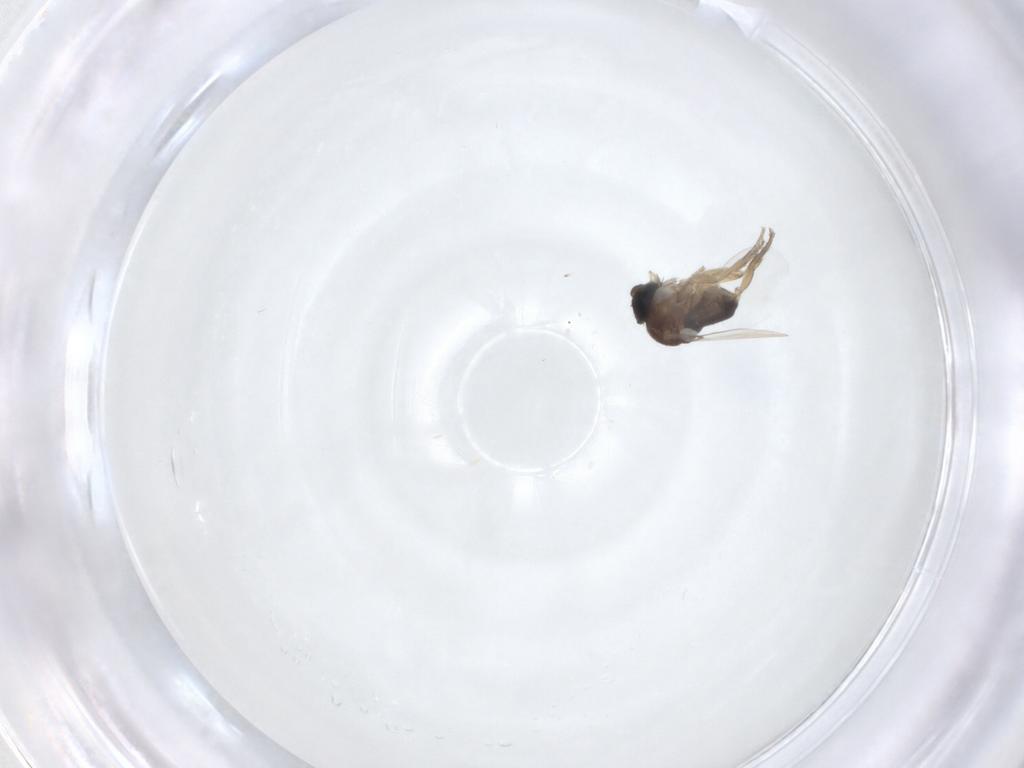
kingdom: Animalia
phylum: Arthropoda
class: Insecta
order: Diptera
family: Phoridae
